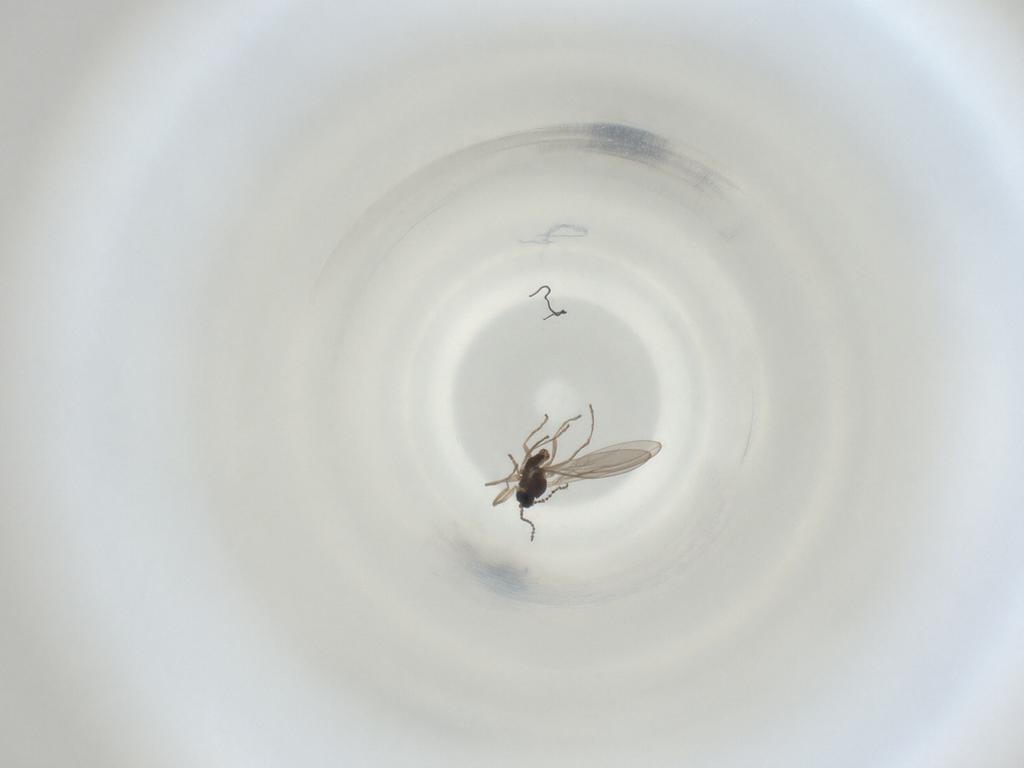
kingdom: Animalia
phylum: Arthropoda
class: Insecta
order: Diptera
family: Cecidomyiidae
